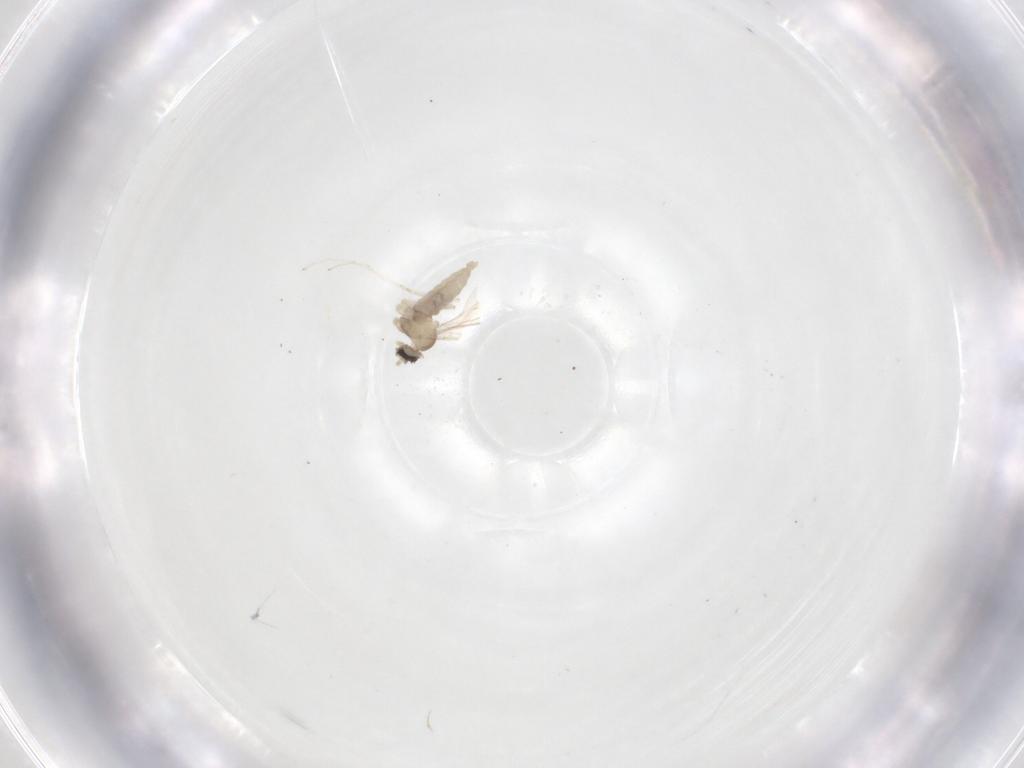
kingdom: Animalia
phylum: Arthropoda
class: Insecta
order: Diptera
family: Cecidomyiidae
